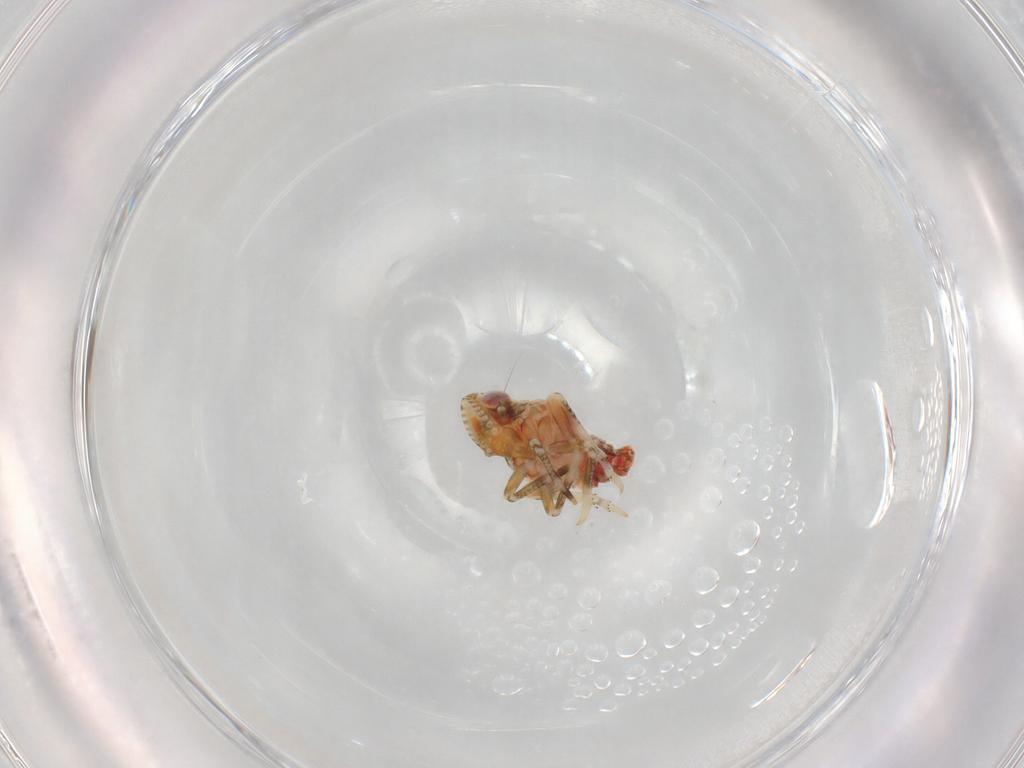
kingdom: Animalia
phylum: Arthropoda
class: Insecta
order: Hemiptera
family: Tropiduchidae
